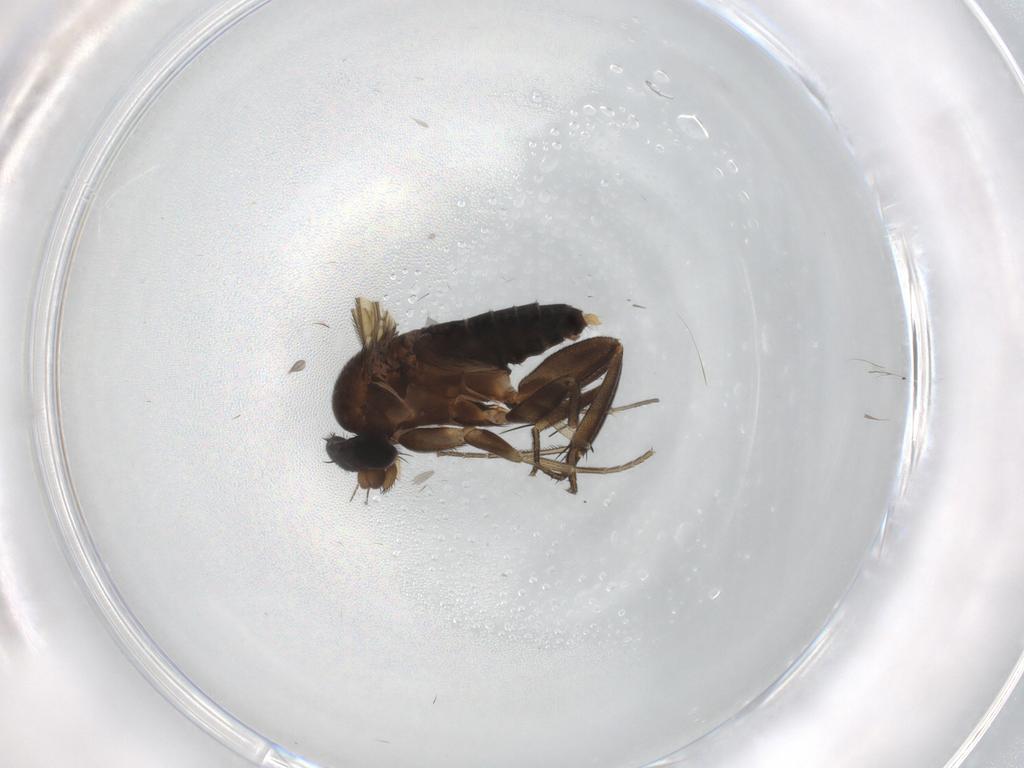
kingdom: Animalia
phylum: Arthropoda
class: Insecta
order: Diptera
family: Phoridae
